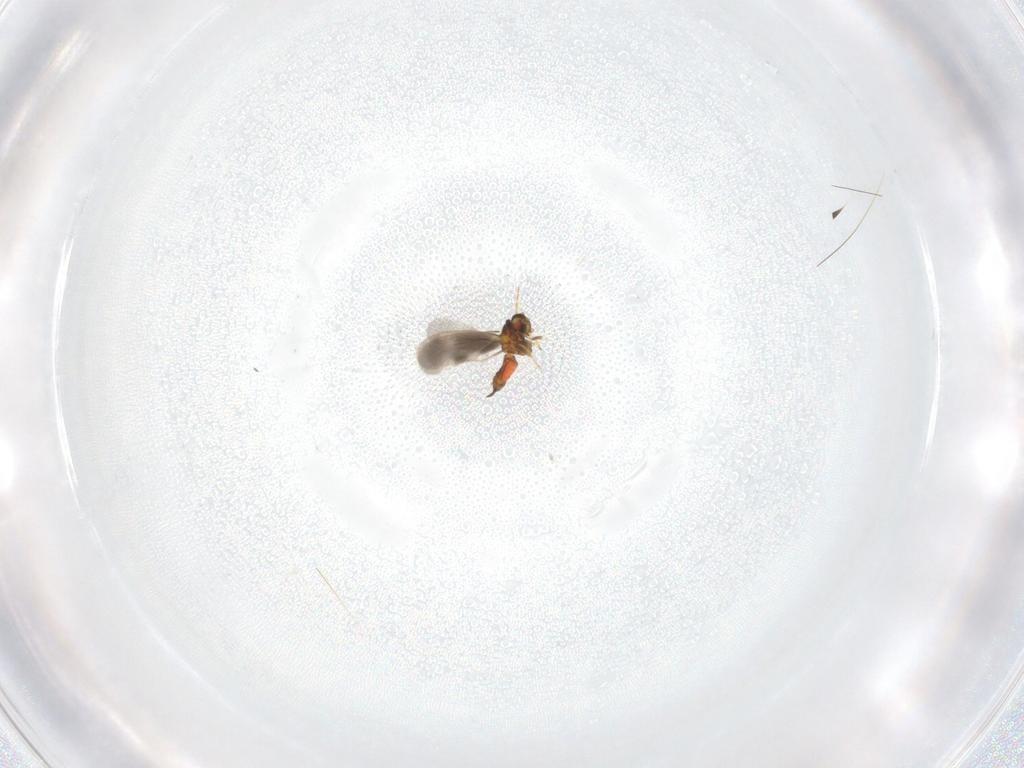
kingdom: Animalia
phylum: Arthropoda
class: Insecta
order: Hemiptera
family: Aleyrodidae
